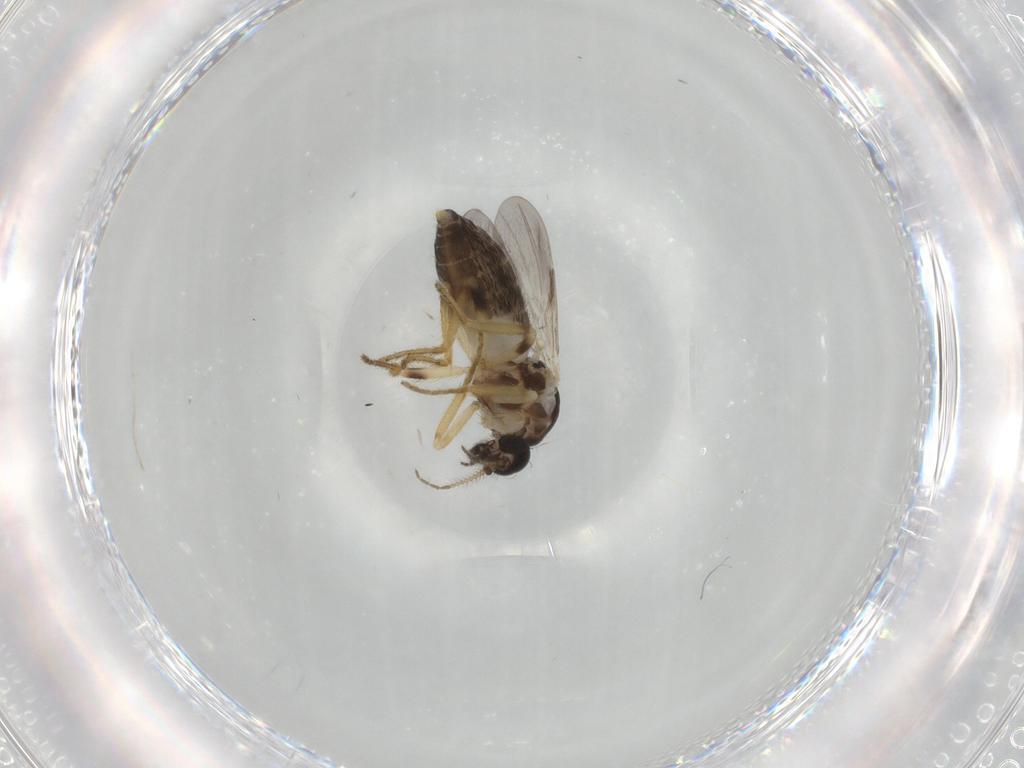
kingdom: Animalia
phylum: Arthropoda
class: Insecta
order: Diptera
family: Ceratopogonidae
